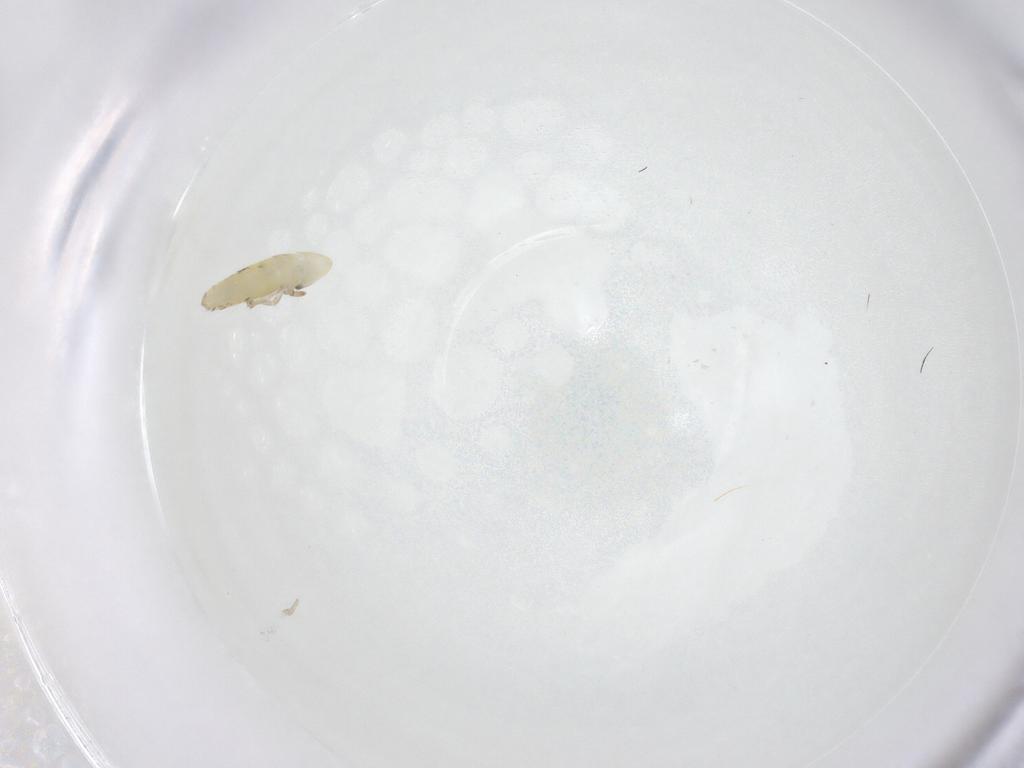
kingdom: Animalia
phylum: Arthropoda
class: Collembola
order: Entomobryomorpha
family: Entomobryidae
